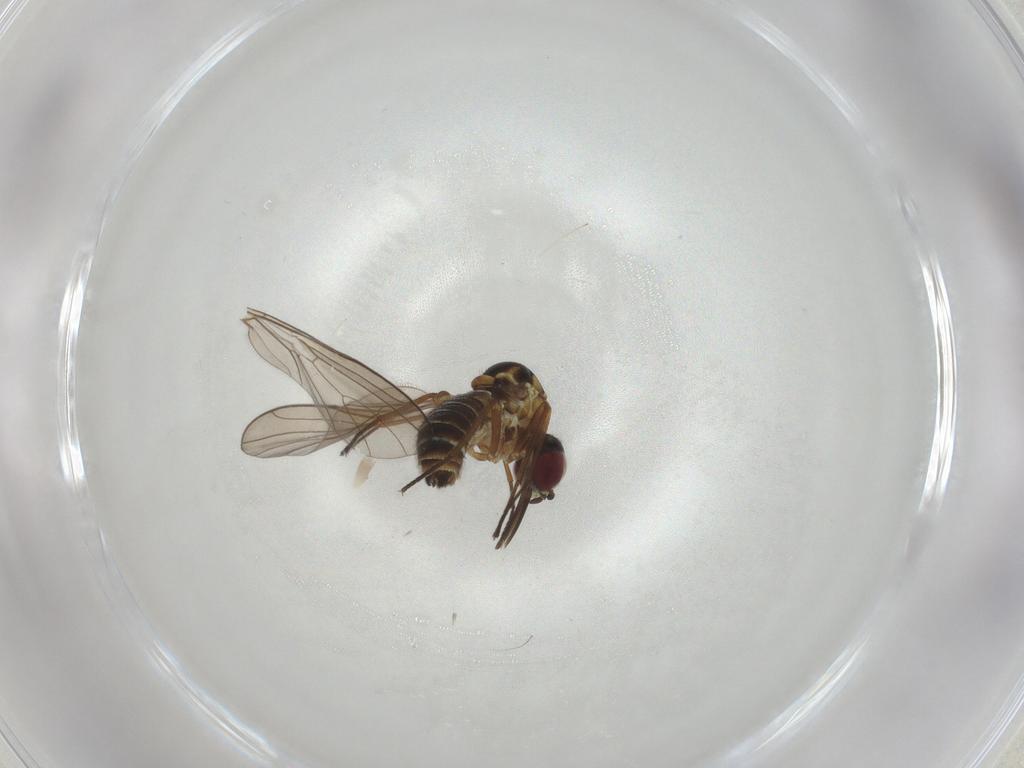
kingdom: Animalia
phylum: Arthropoda
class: Insecta
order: Diptera
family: Bombyliidae
